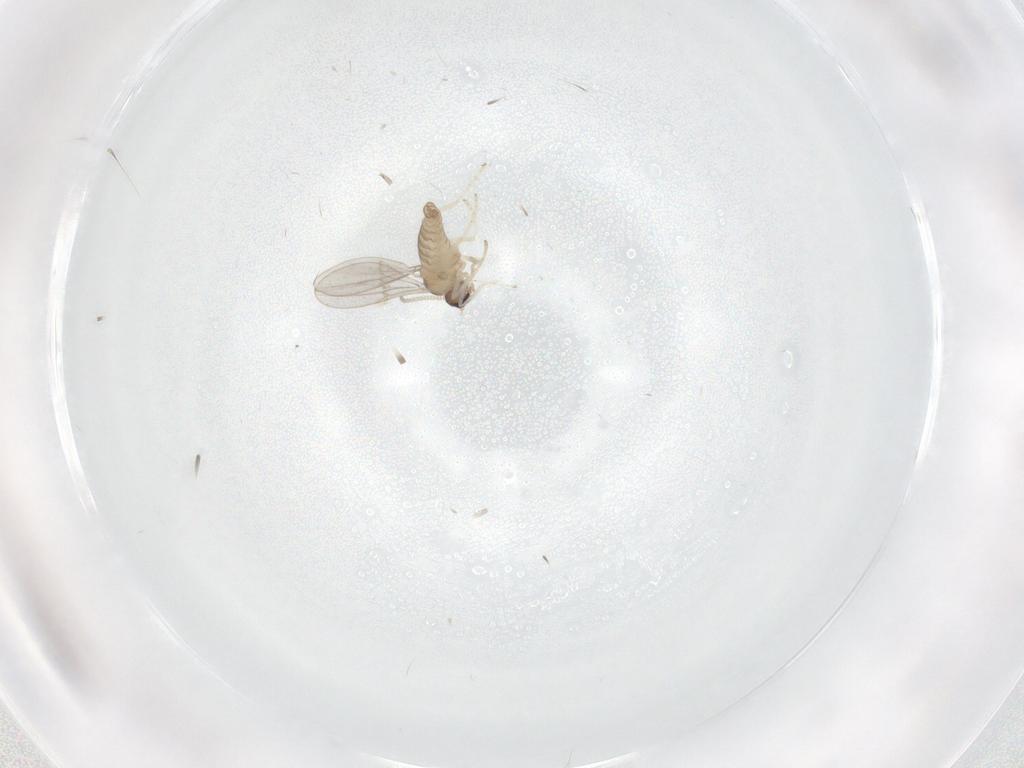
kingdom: Animalia
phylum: Arthropoda
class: Insecta
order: Diptera
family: Cecidomyiidae
